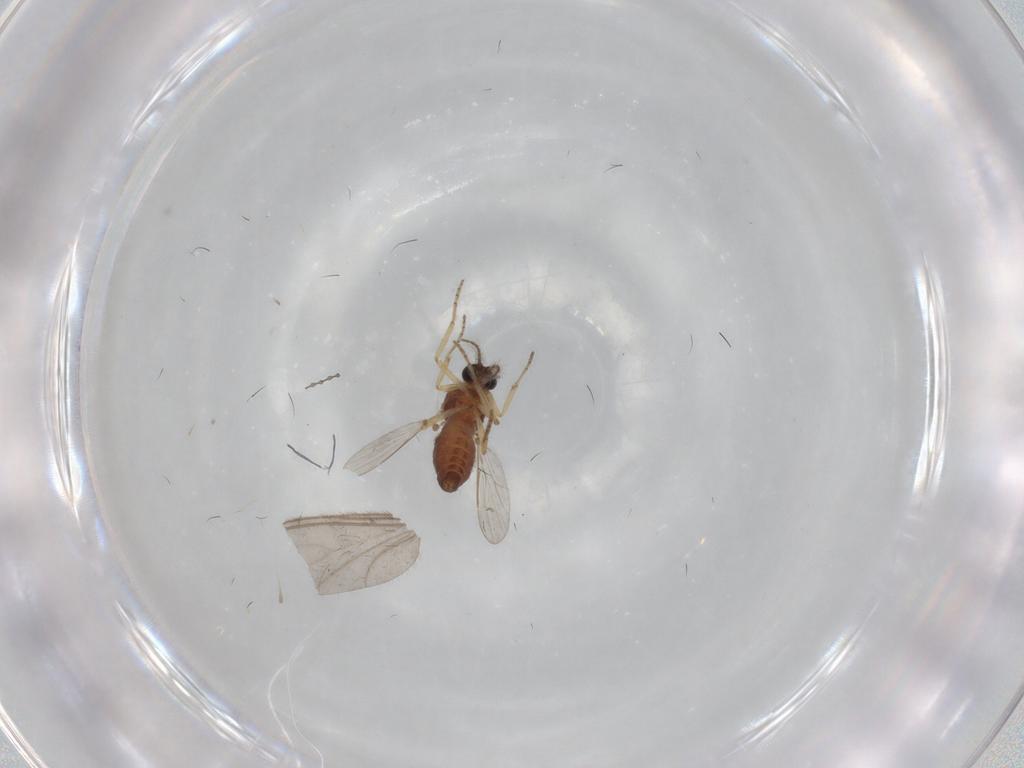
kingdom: Animalia
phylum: Arthropoda
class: Insecta
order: Diptera
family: Ceratopogonidae
